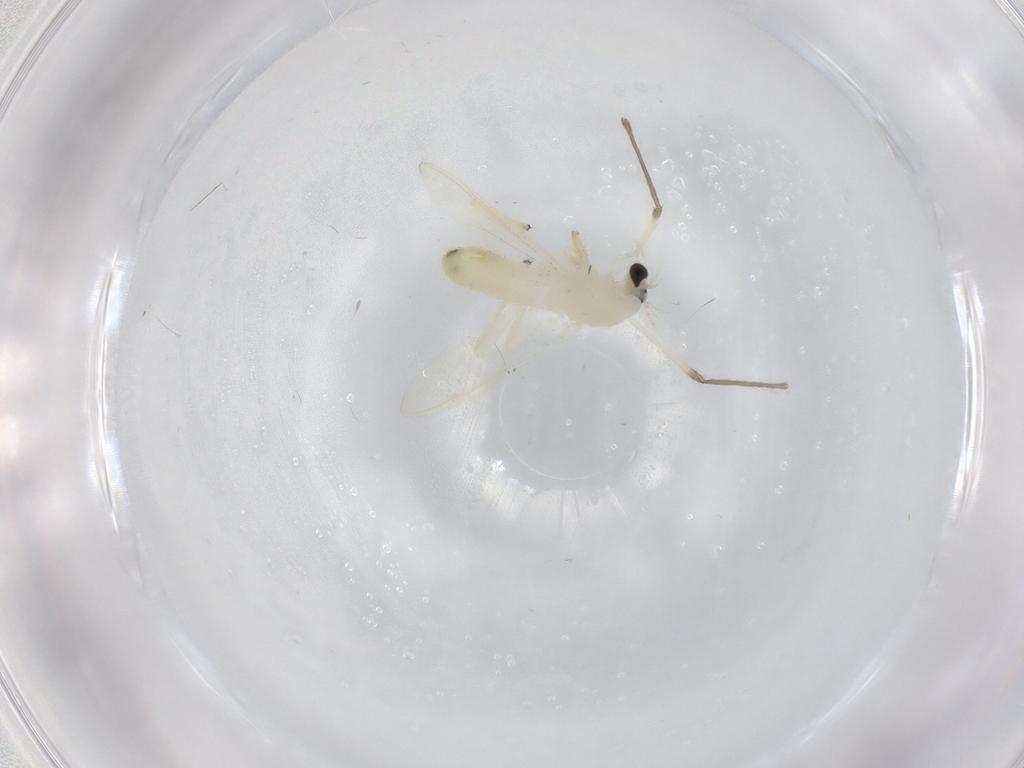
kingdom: Animalia
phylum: Arthropoda
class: Insecta
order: Diptera
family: Chironomidae
